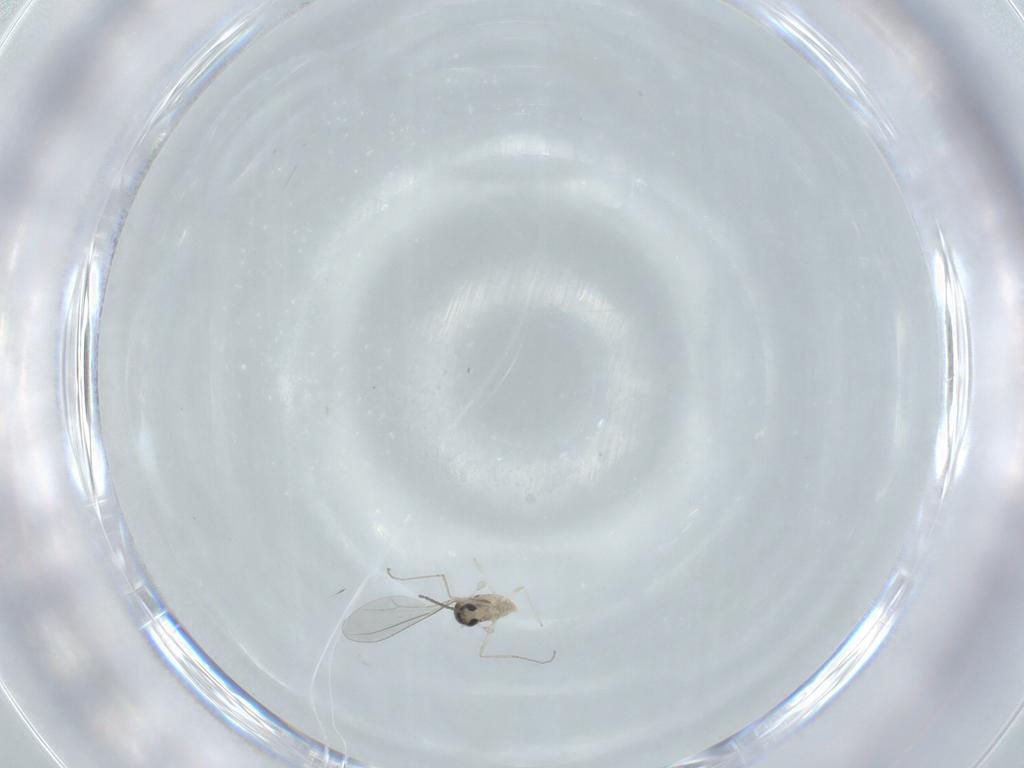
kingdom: Animalia
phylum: Arthropoda
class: Insecta
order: Diptera
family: Cecidomyiidae
